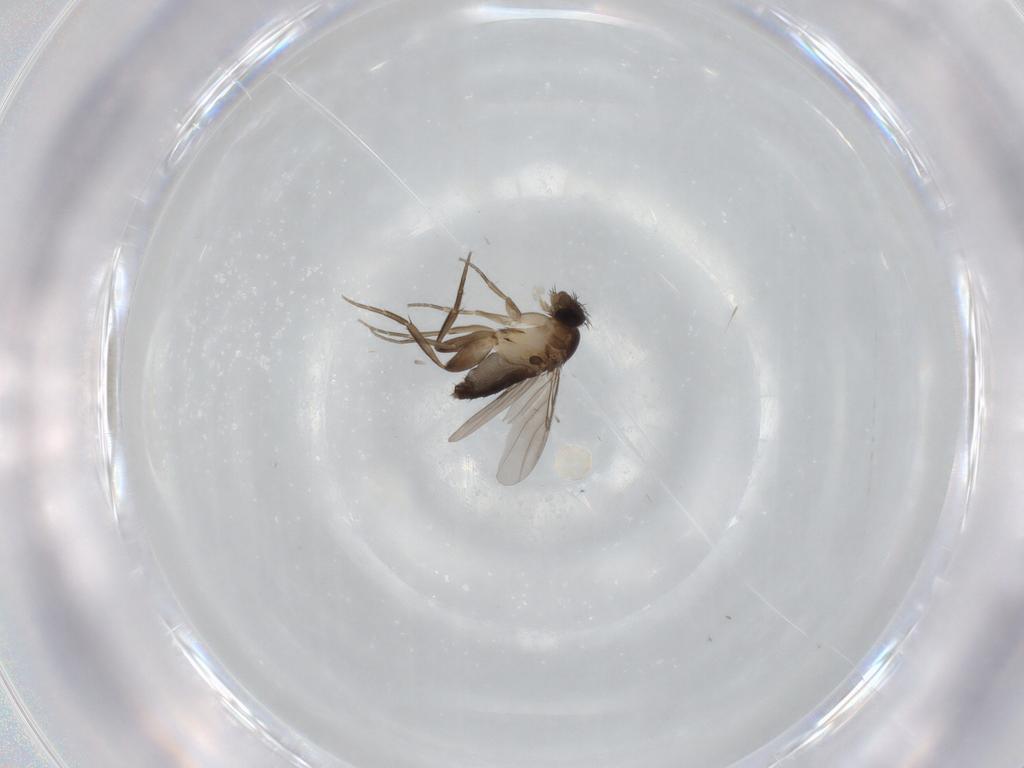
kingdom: Animalia
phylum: Arthropoda
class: Insecta
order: Diptera
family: Phoridae
